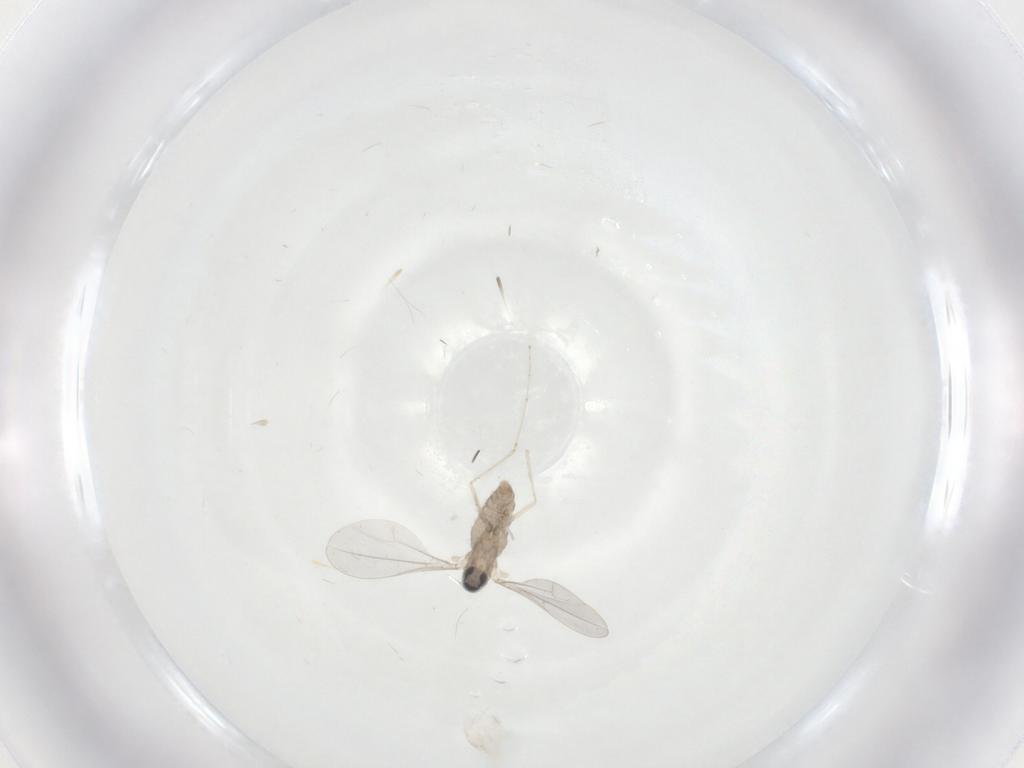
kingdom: Animalia
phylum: Arthropoda
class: Insecta
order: Diptera
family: Cecidomyiidae
